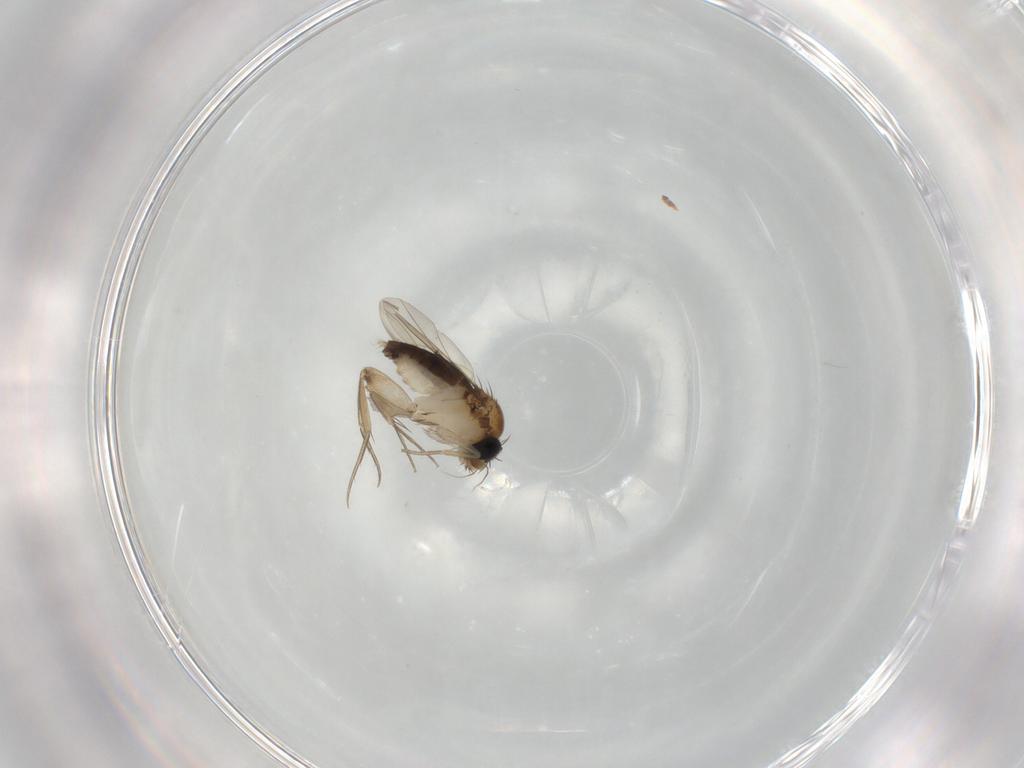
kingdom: Animalia
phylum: Arthropoda
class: Insecta
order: Diptera
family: Phoridae
